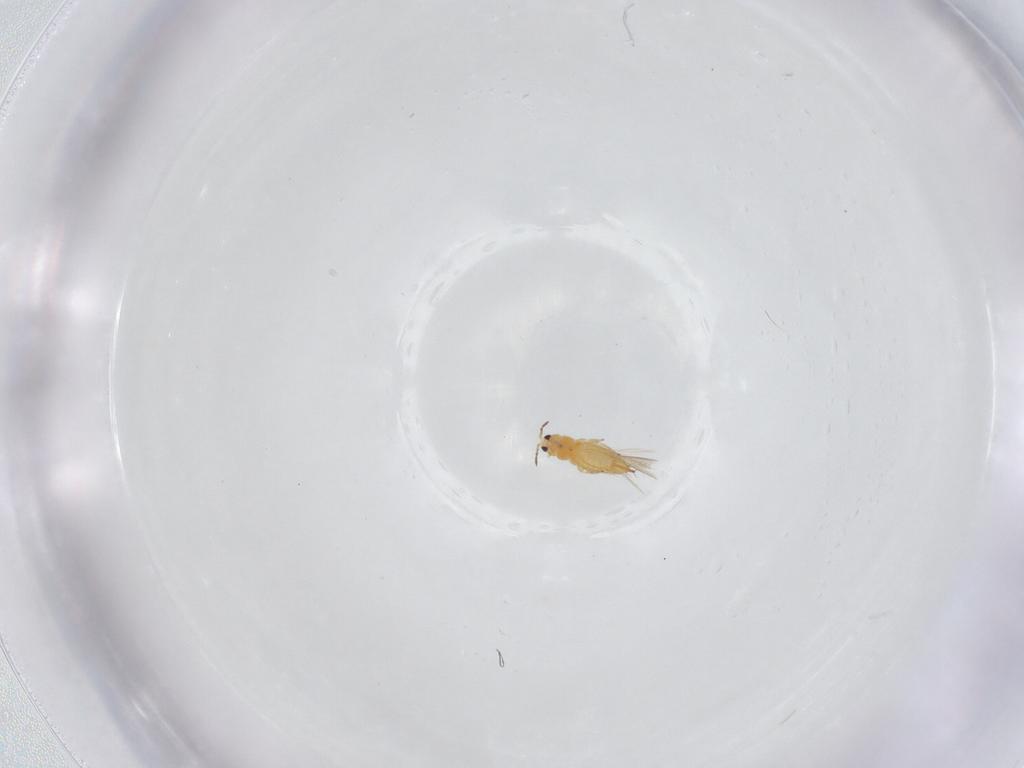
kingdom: Animalia
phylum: Arthropoda
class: Insecta
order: Thysanoptera
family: Thripidae
